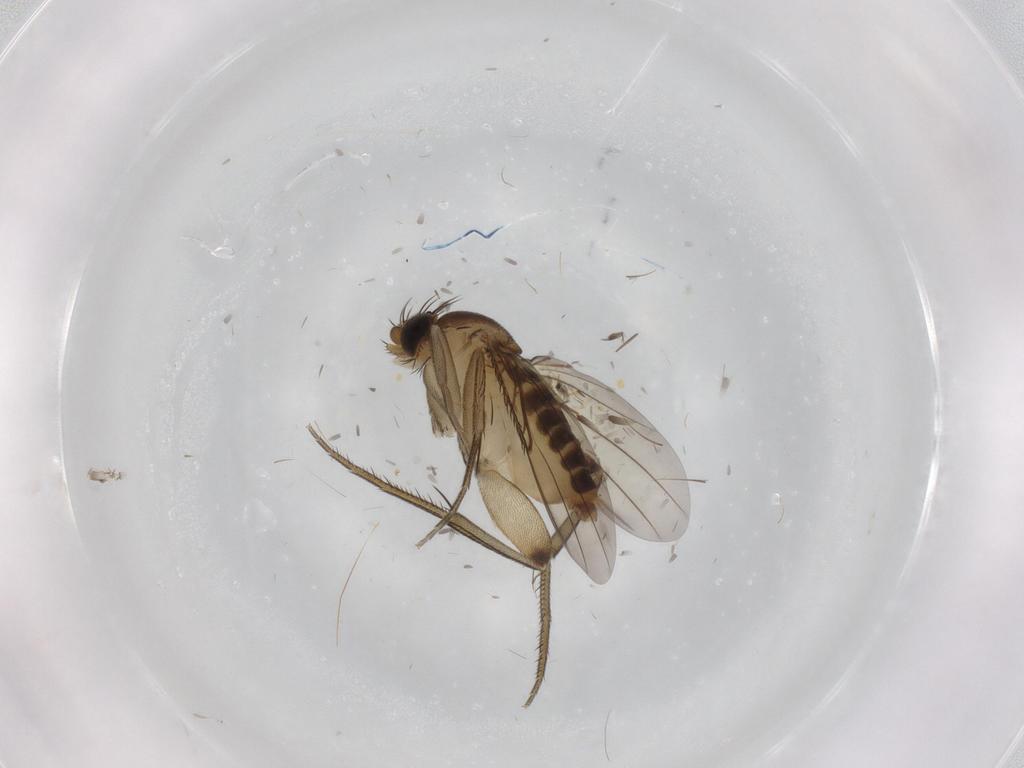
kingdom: Animalia
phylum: Arthropoda
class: Insecta
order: Diptera
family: Phoridae
